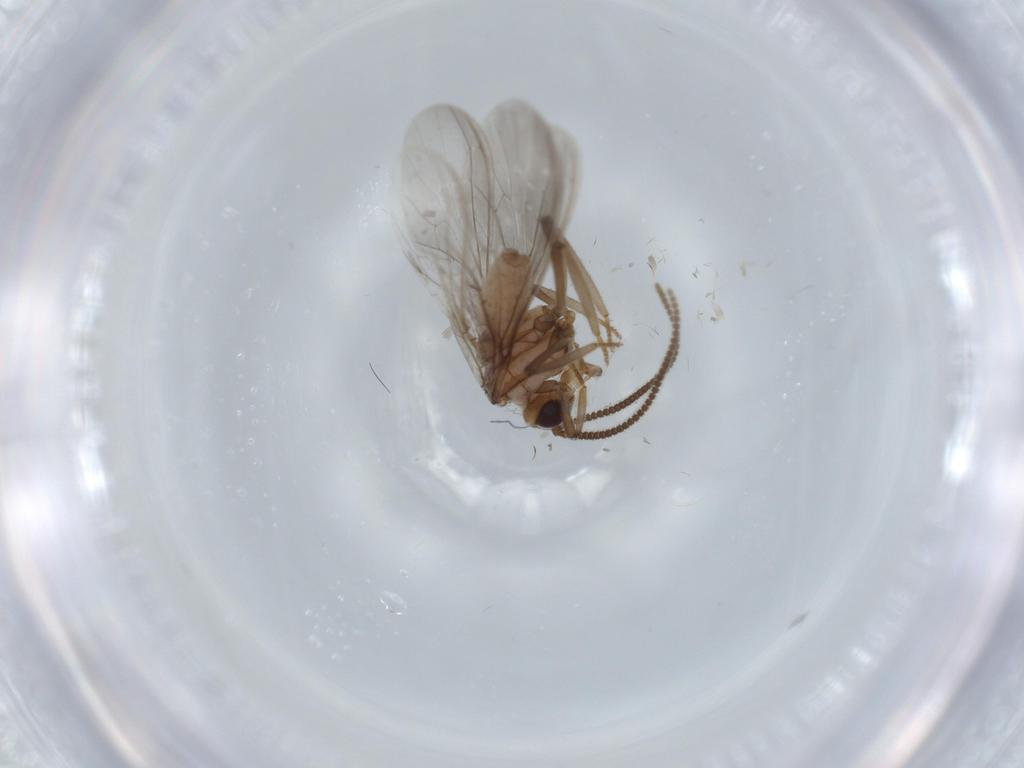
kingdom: Animalia
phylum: Arthropoda
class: Insecta
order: Neuroptera
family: Coniopterygidae
